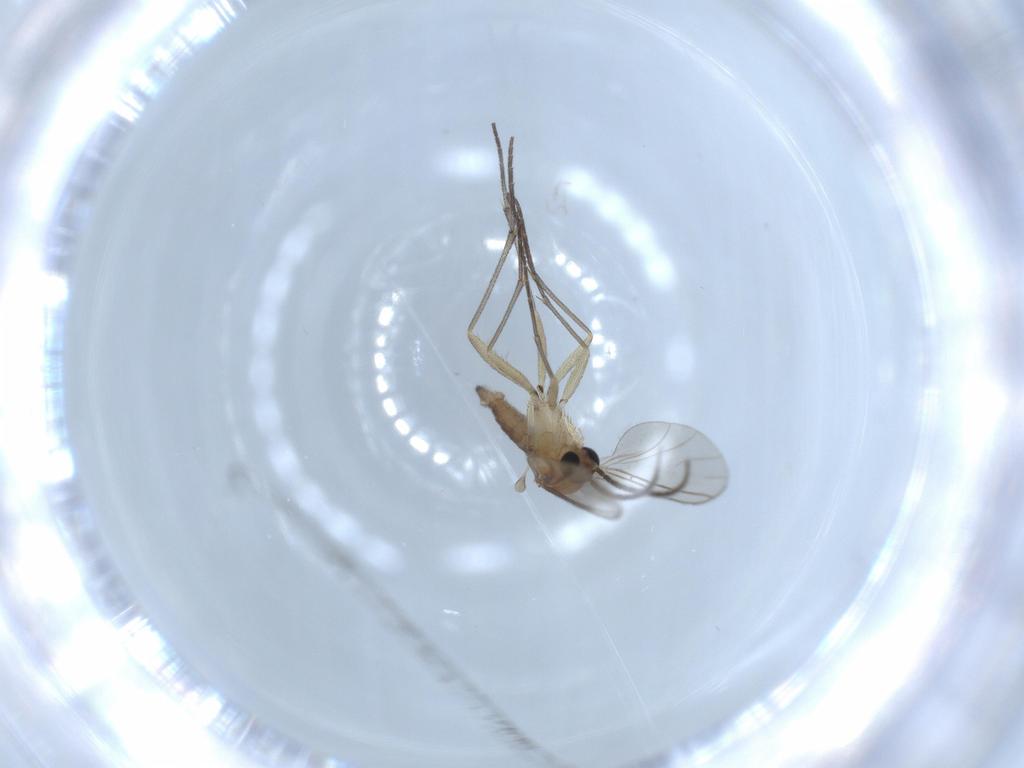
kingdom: Animalia
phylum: Arthropoda
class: Insecta
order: Diptera
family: Sciaridae
